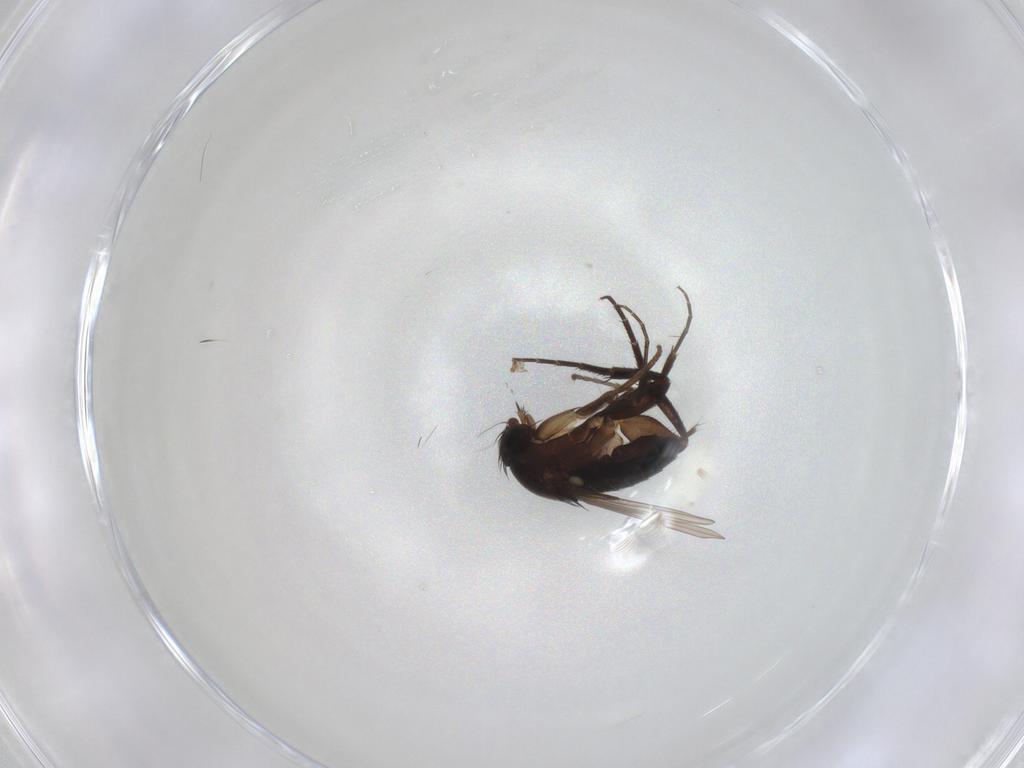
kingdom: Animalia
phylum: Arthropoda
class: Insecta
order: Diptera
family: Phoridae
